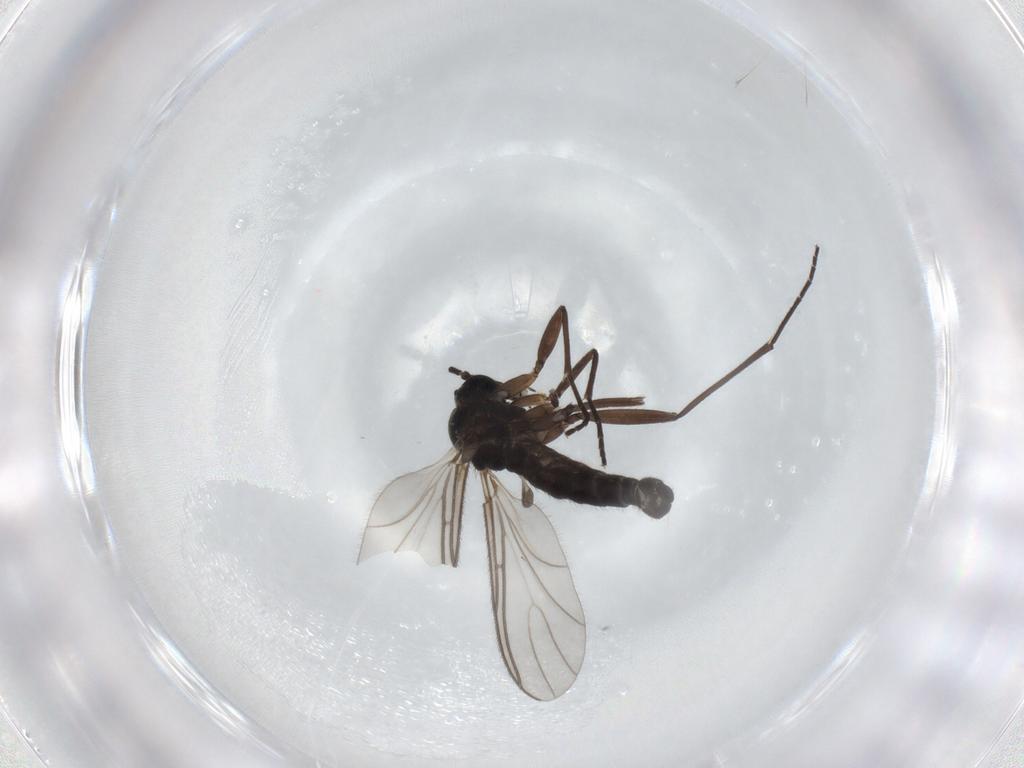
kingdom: Animalia
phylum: Arthropoda
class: Insecta
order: Diptera
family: Sciaridae
